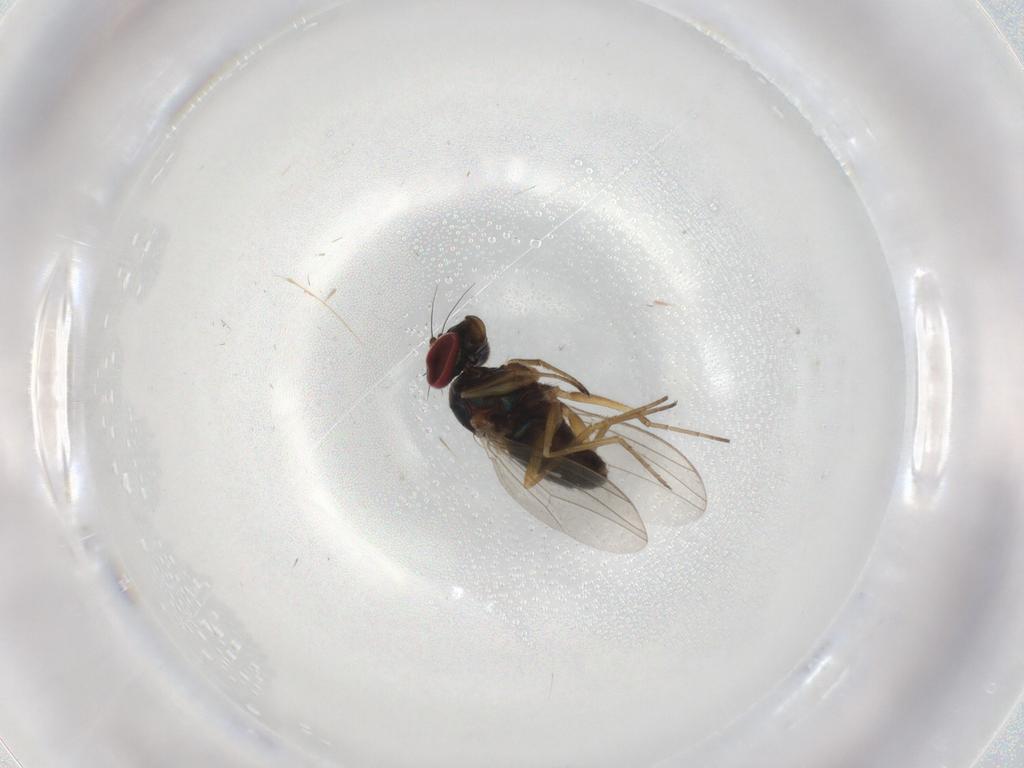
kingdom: Animalia
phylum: Arthropoda
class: Insecta
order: Diptera
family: Dolichopodidae
